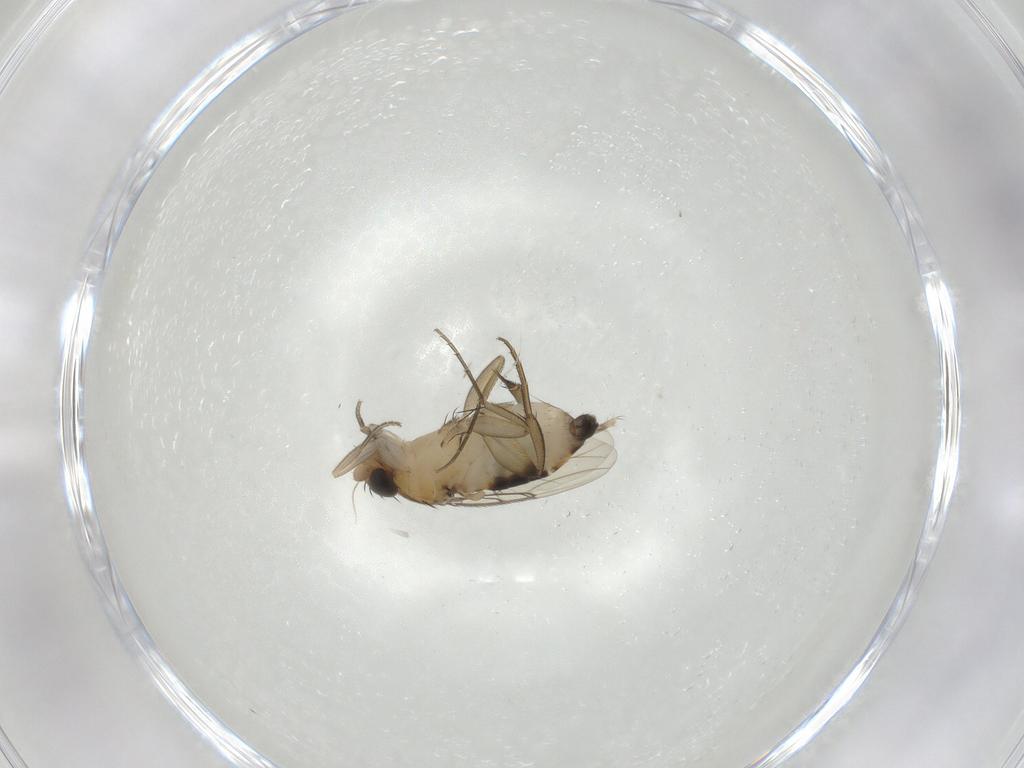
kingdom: Animalia
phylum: Arthropoda
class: Insecta
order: Diptera
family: Phoridae
